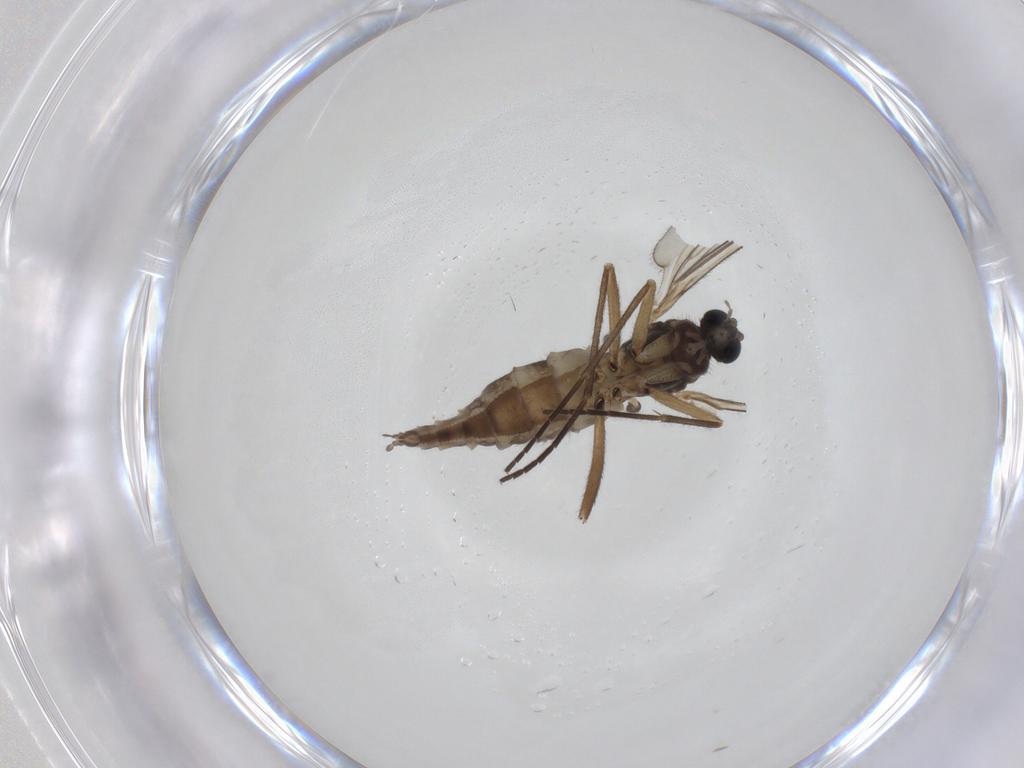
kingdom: Animalia
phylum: Arthropoda
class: Insecta
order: Diptera
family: Sciaridae
